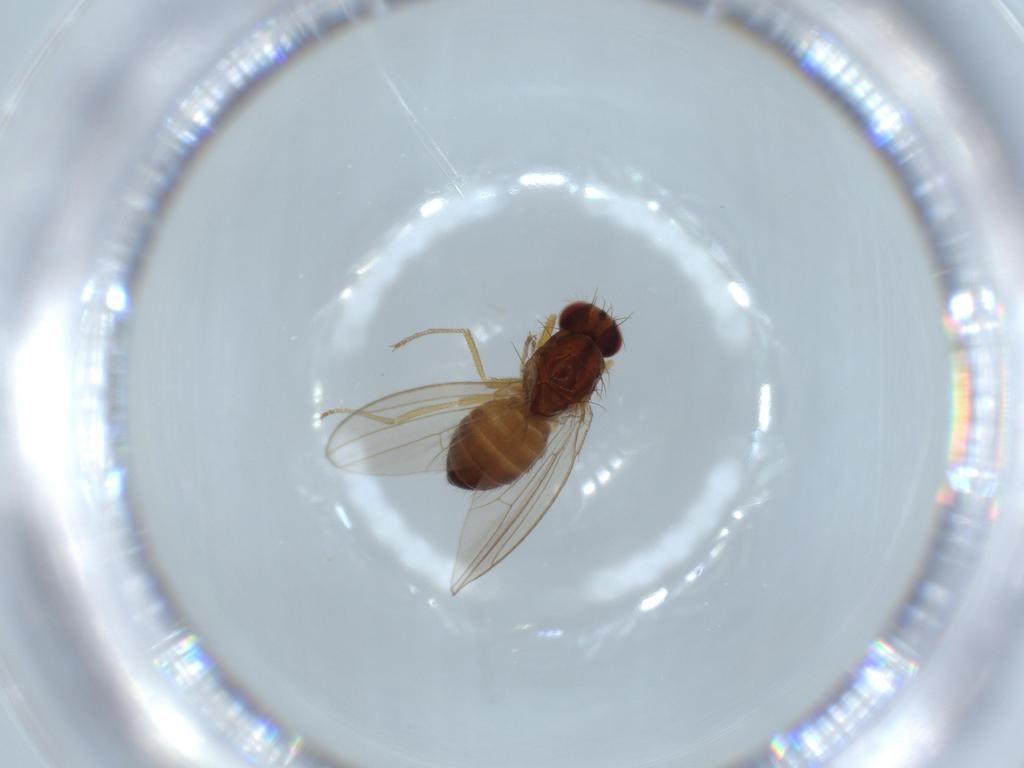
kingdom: Animalia
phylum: Arthropoda
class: Insecta
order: Diptera
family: Drosophilidae
